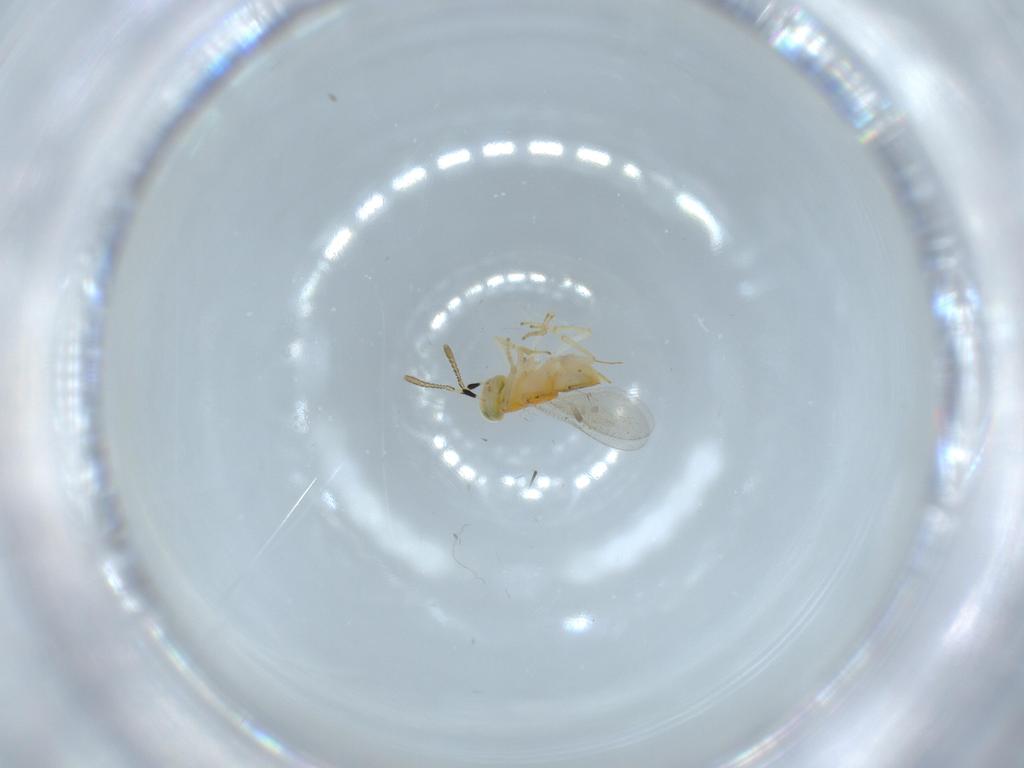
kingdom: Animalia
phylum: Arthropoda
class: Insecta
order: Hymenoptera
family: Encyrtidae
